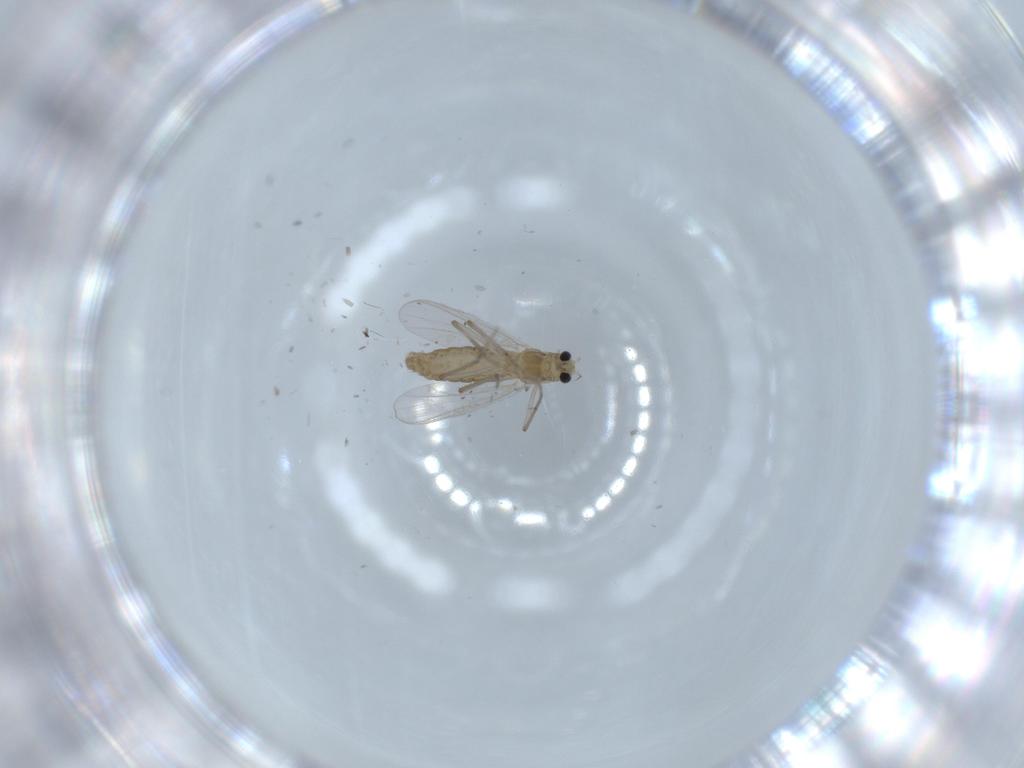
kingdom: Animalia
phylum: Arthropoda
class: Insecta
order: Diptera
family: Chironomidae
